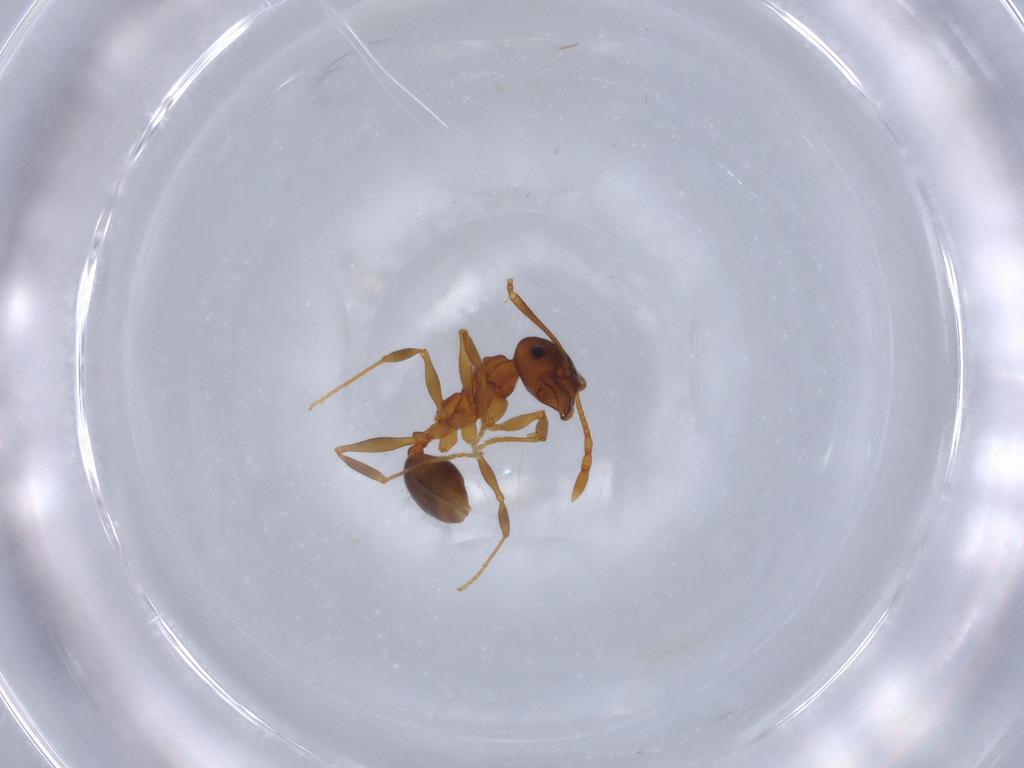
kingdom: Animalia
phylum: Arthropoda
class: Insecta
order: Hymenoptera
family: Formicidae
